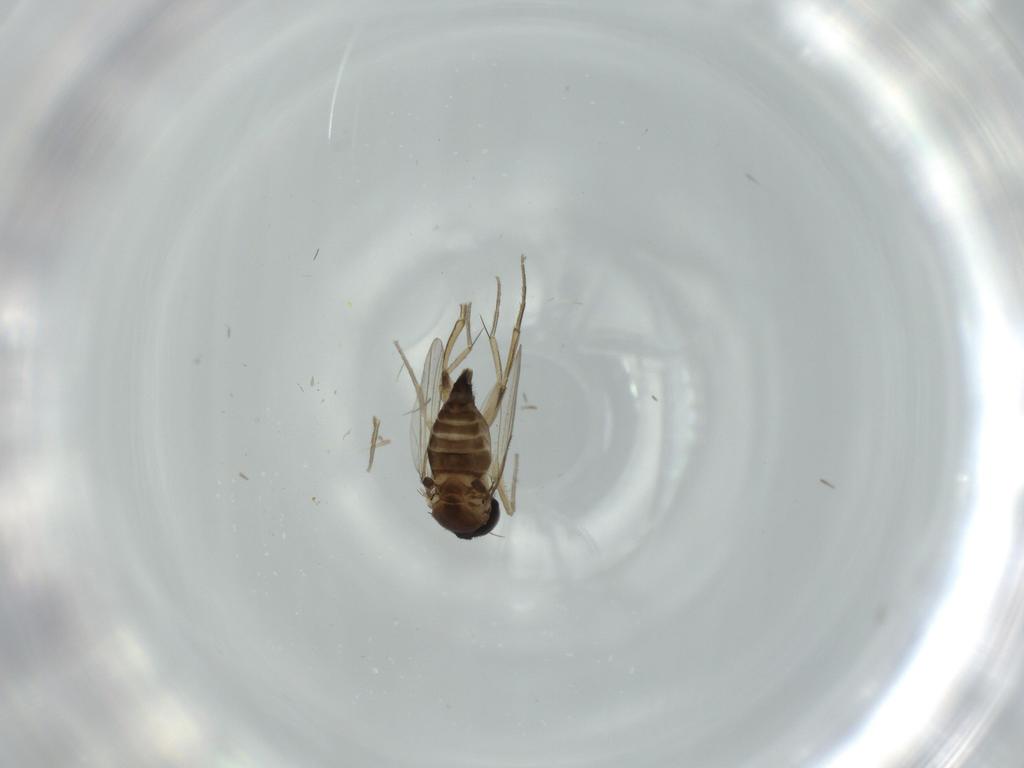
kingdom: Animalia
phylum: Arthropoda
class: Insecta
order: Diptera
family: Phoridae
